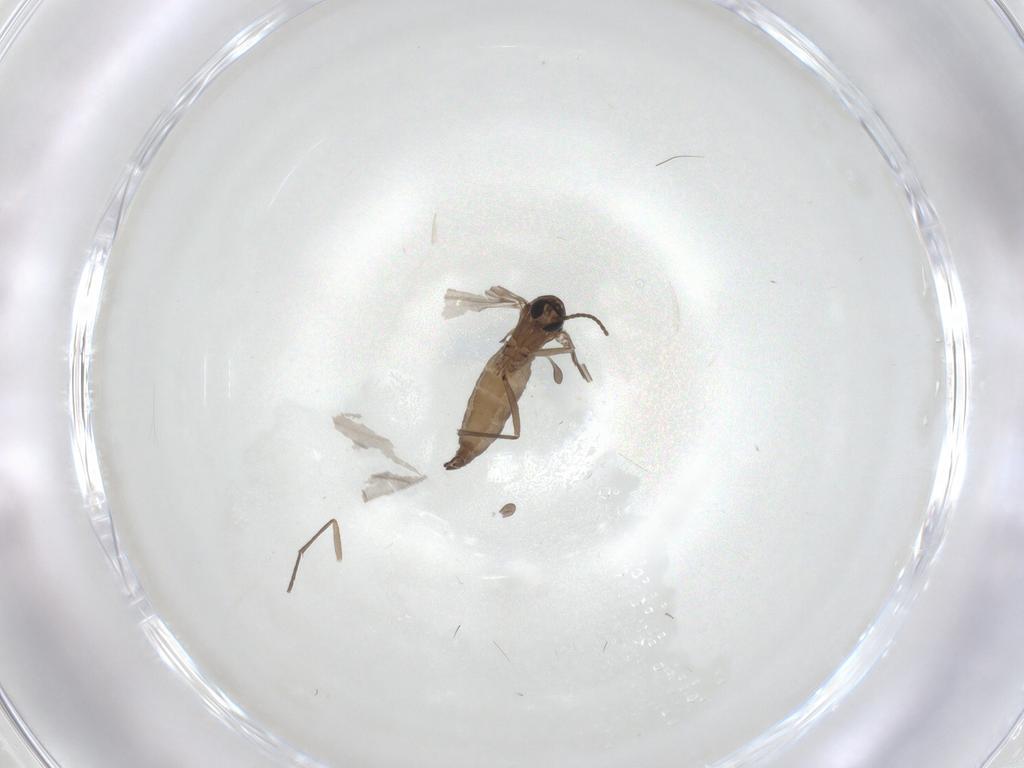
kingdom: Animalia
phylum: Arthropoda
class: Insecta
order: Diptera
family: Sciaridae
